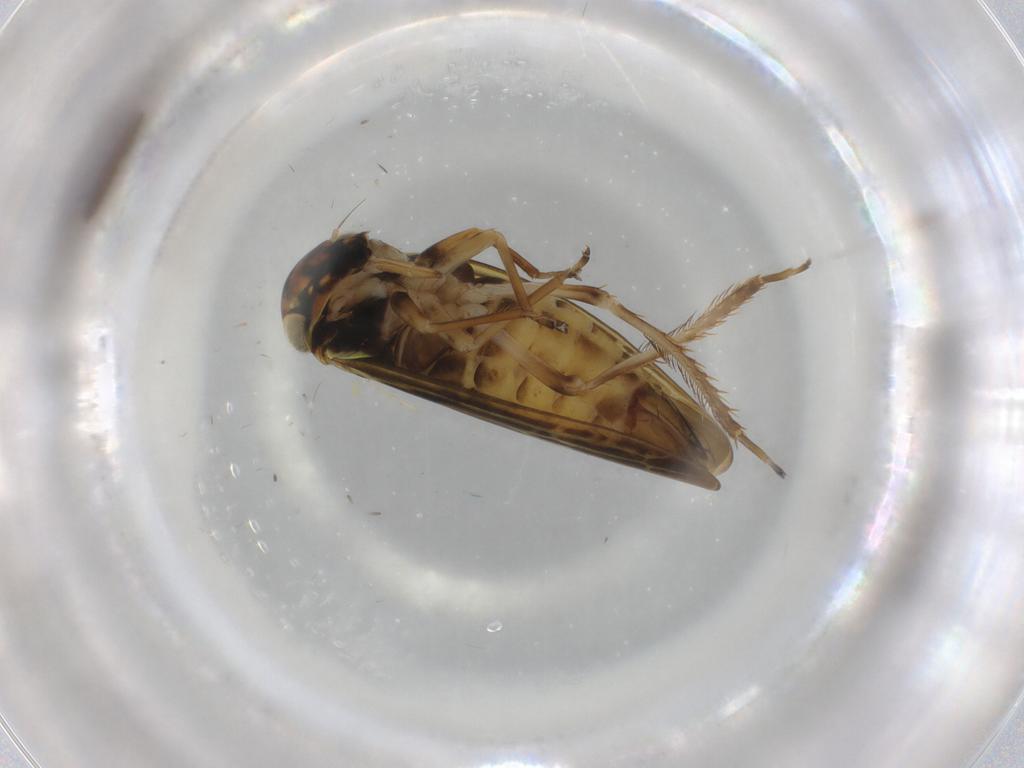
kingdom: Animalia
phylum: Arthropoda
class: Insecta
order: Hemiptera
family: Cicadellidae
